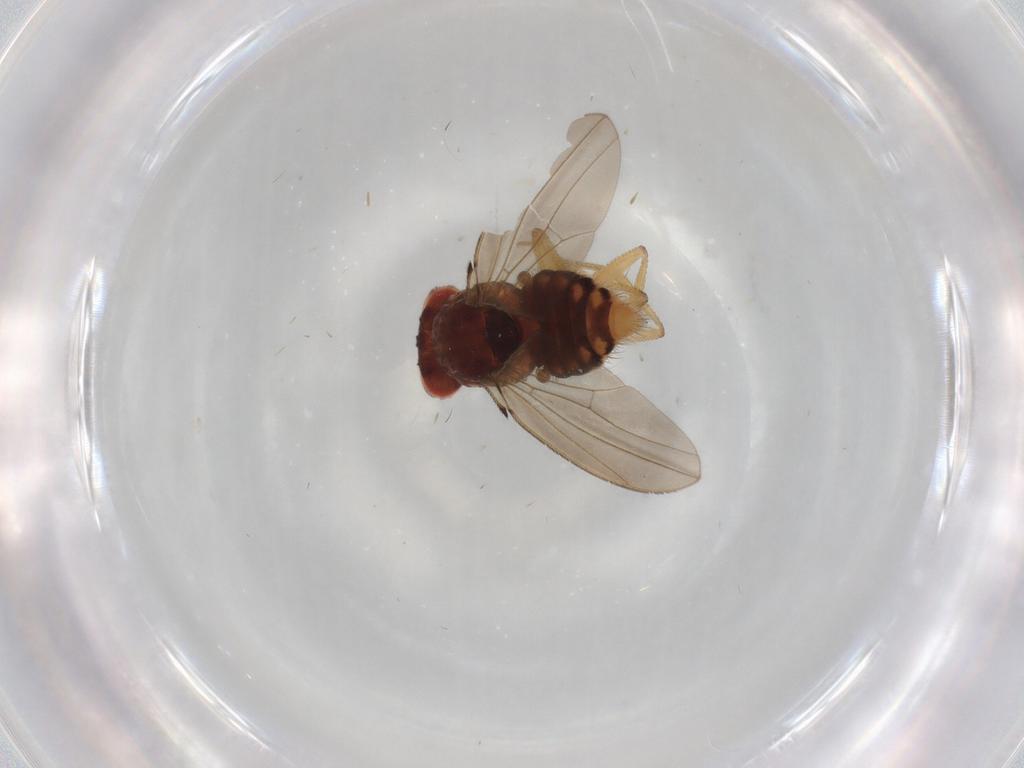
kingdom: Animalia
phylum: Arthropoda
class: Insecta
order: Diptera
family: Drosophilidae
